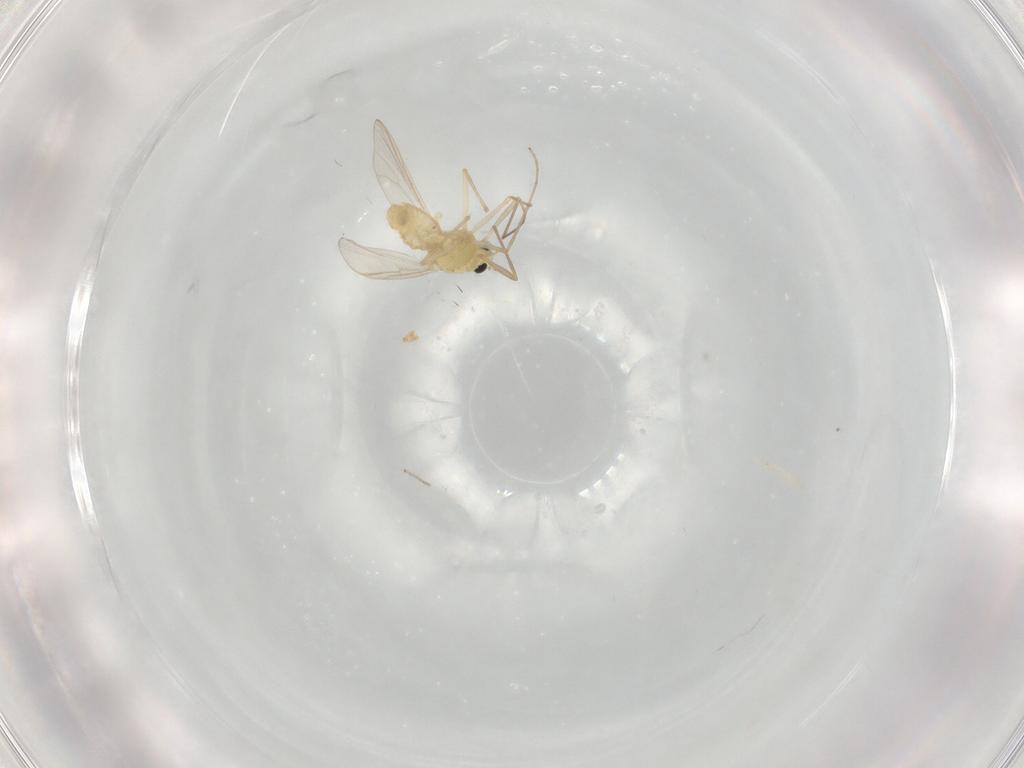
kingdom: Animalia
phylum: Arthropoda
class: Insecta
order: Diptera
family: Chironomidae
